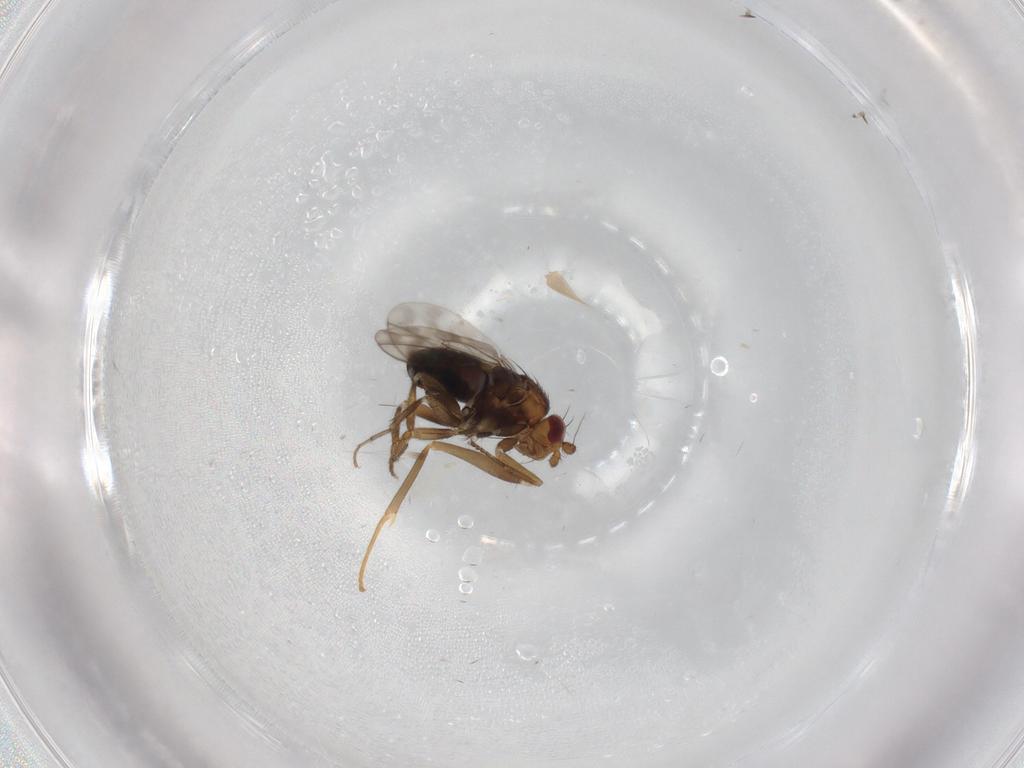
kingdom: Animalia
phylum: Arthropoda
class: Insecta
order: Diptera
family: Sphaeroceridae
